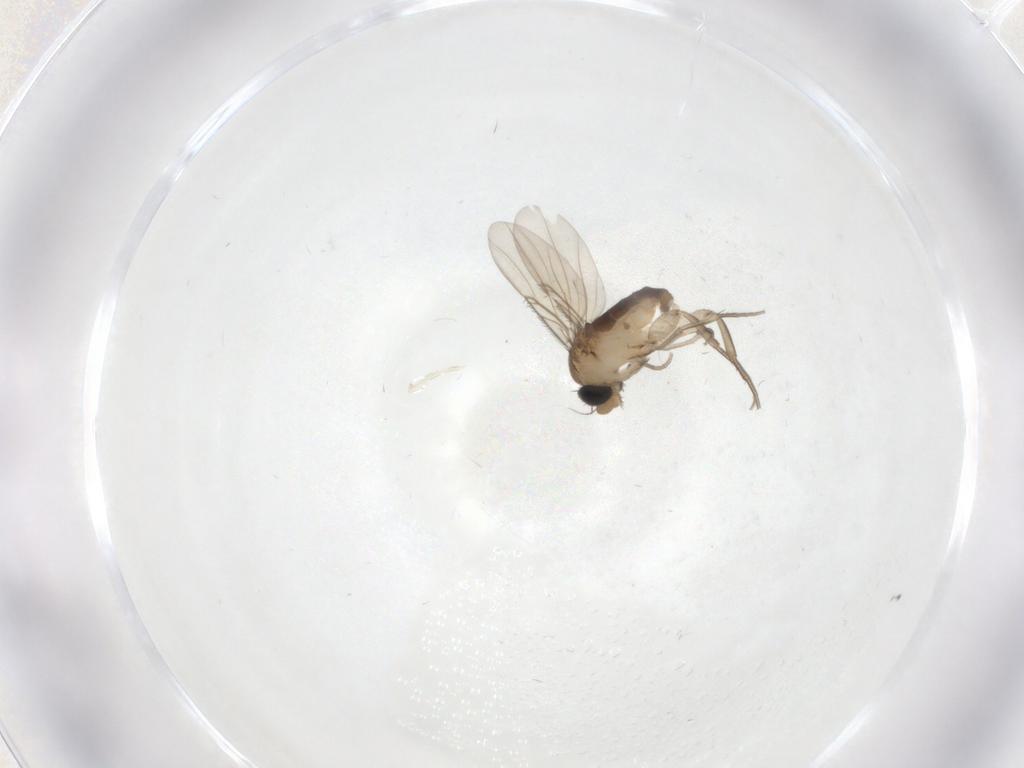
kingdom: Animalia
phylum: Arthropoda
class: Insecta
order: Diptera
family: Phoridae
